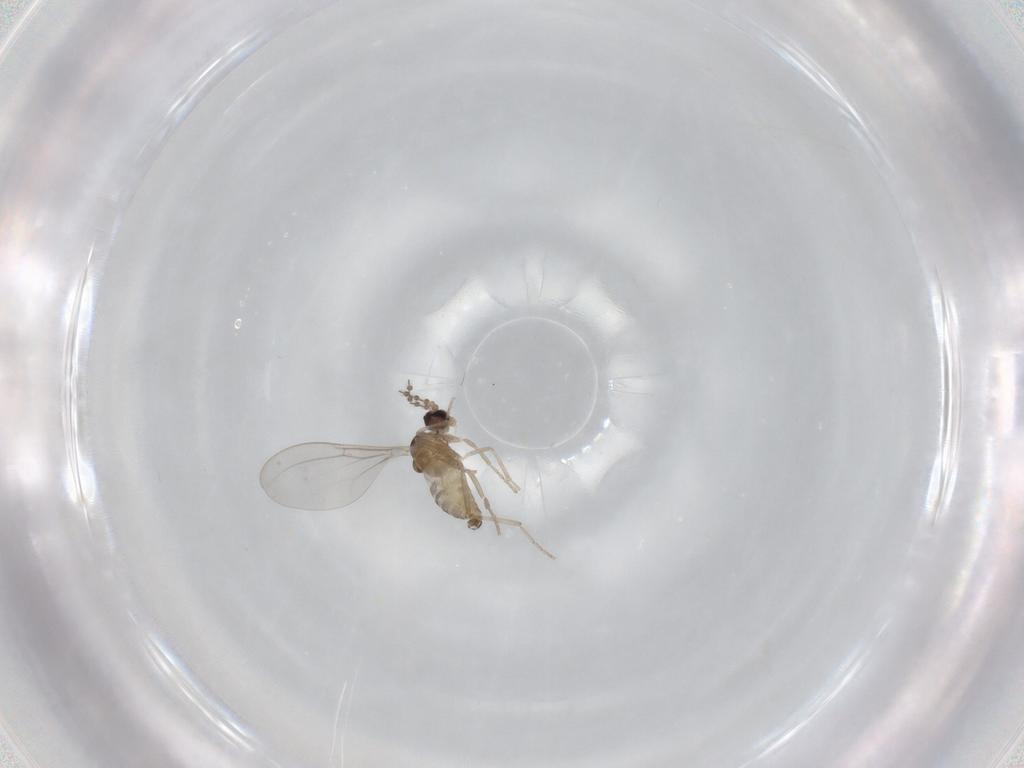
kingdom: Animalia
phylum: Arthropoda
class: Insecta
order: Diptera
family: Cecidomyiidae
